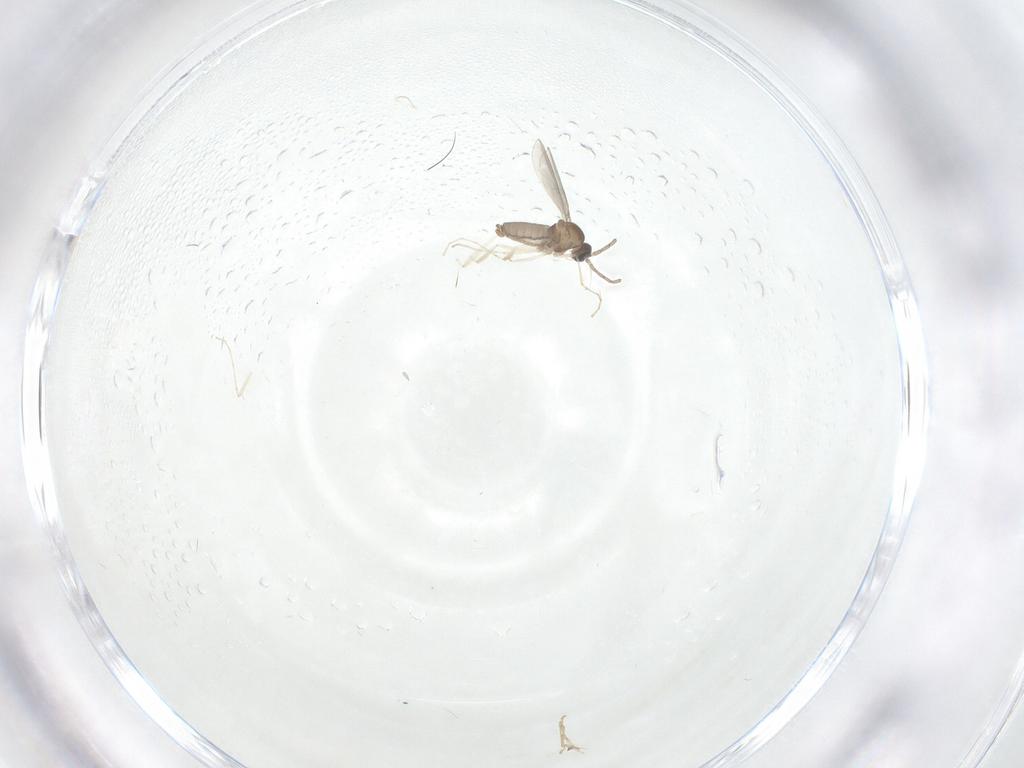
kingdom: Animalia
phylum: Arthropoda
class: Insecta
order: Diptera
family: Cecidomyiidae
